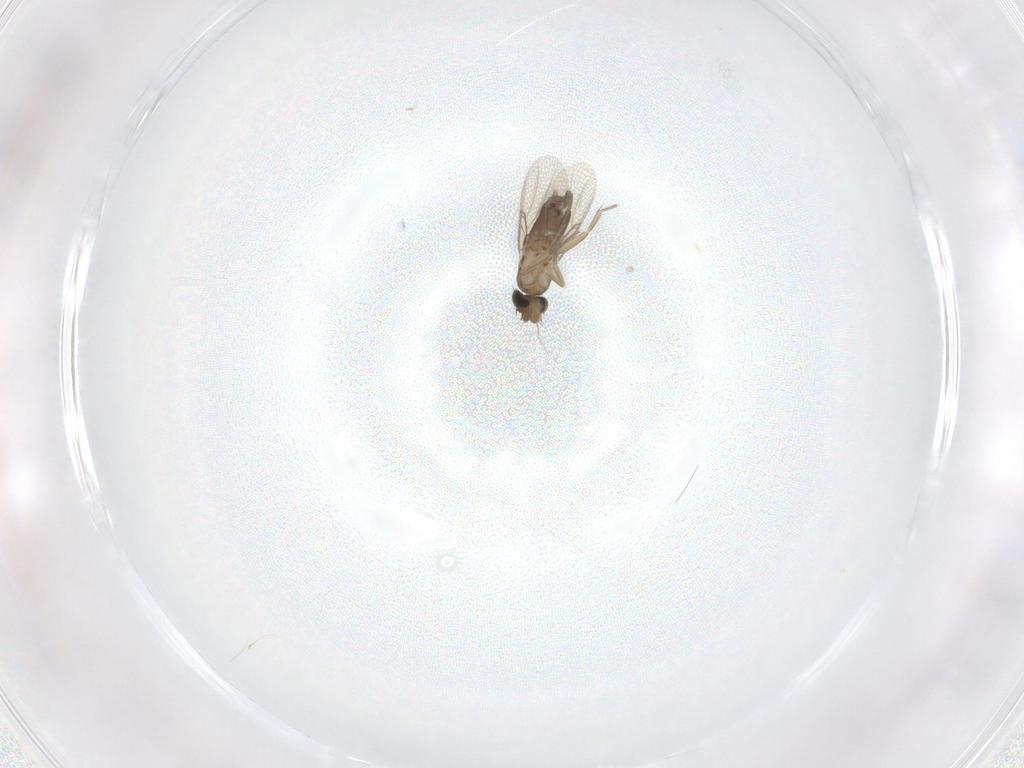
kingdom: Animalia
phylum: Arthropoda
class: Insecta
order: Diptera
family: Phoridae
